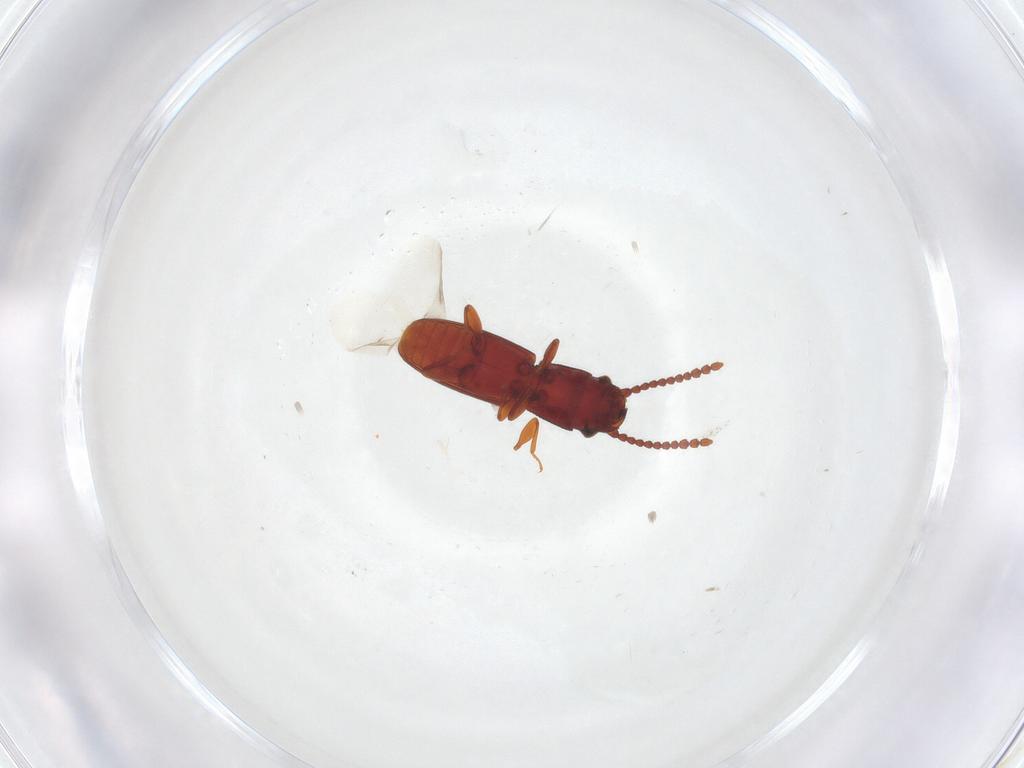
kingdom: Animalia
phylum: Arthropoda
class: Insecta
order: Coleoptera
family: Laemophloeidae
